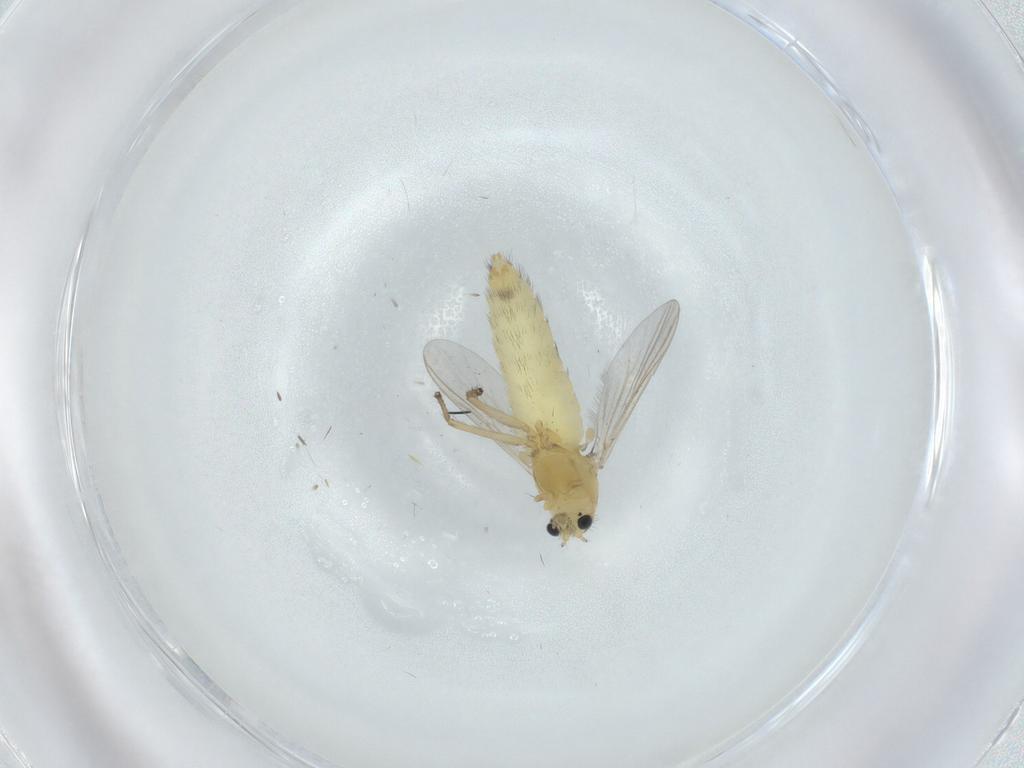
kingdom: Animalia
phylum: Arthropoda
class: Insecta
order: Diptera
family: Chironomidae
